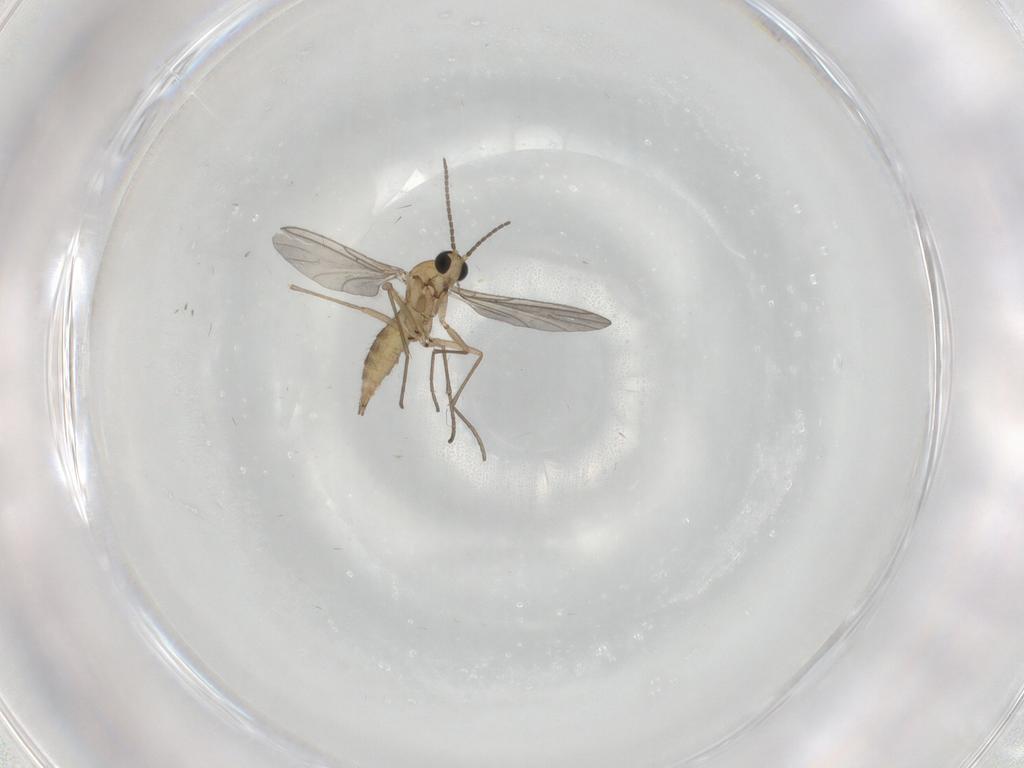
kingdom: Animalia
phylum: Arthropoda
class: Insecta
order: Diptera
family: Sciaridae
